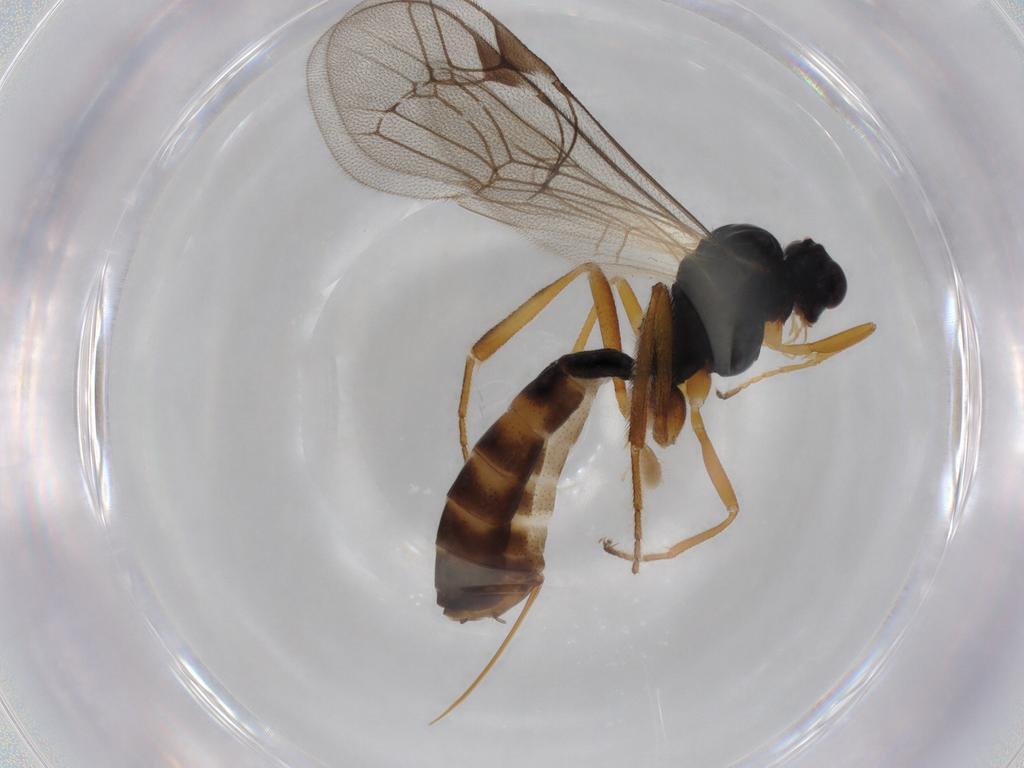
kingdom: Animalia
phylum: Arthropoda
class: Insecta
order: Hymenoptera
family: Ichneumonidae
